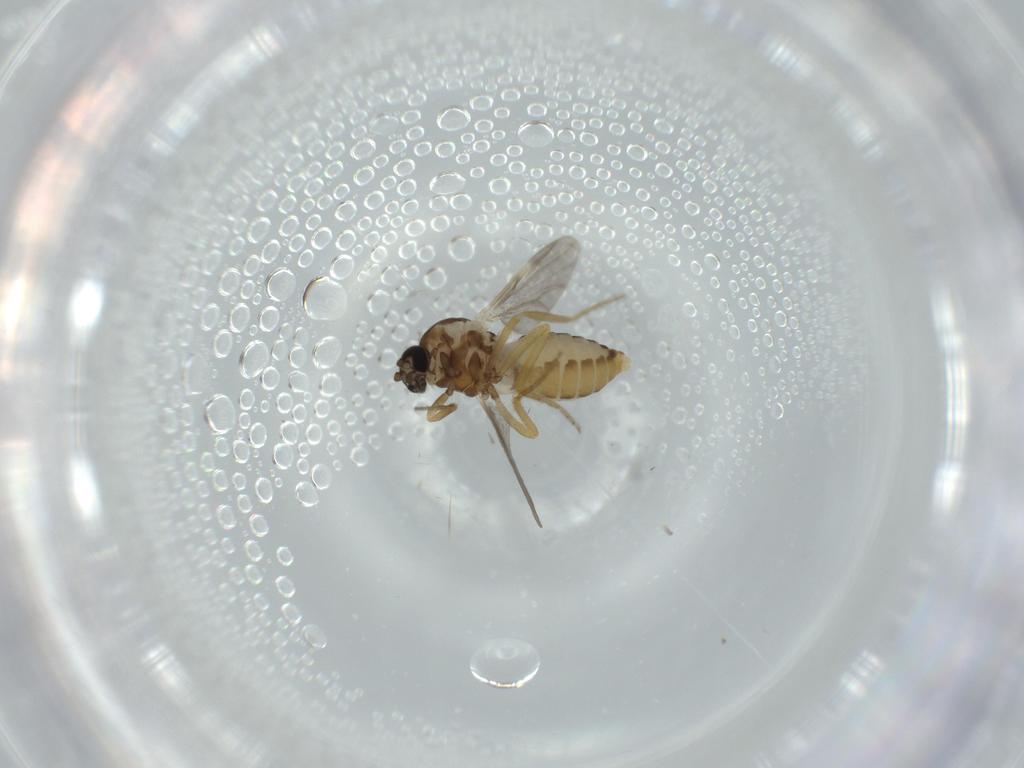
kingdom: Animalia
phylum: Arthropoda
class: Insecta
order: Diptera
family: Ceratopogonidae
